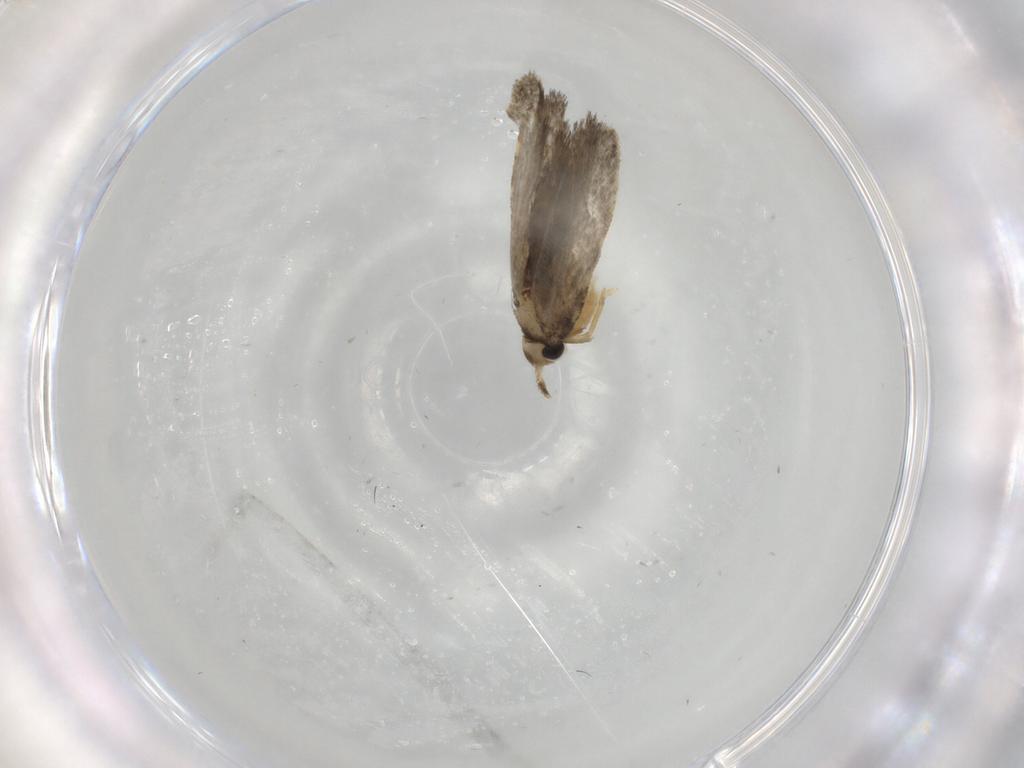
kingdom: Animalia
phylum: Arthropoda
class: Insecta
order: Lepidoptera
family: Psychidae
